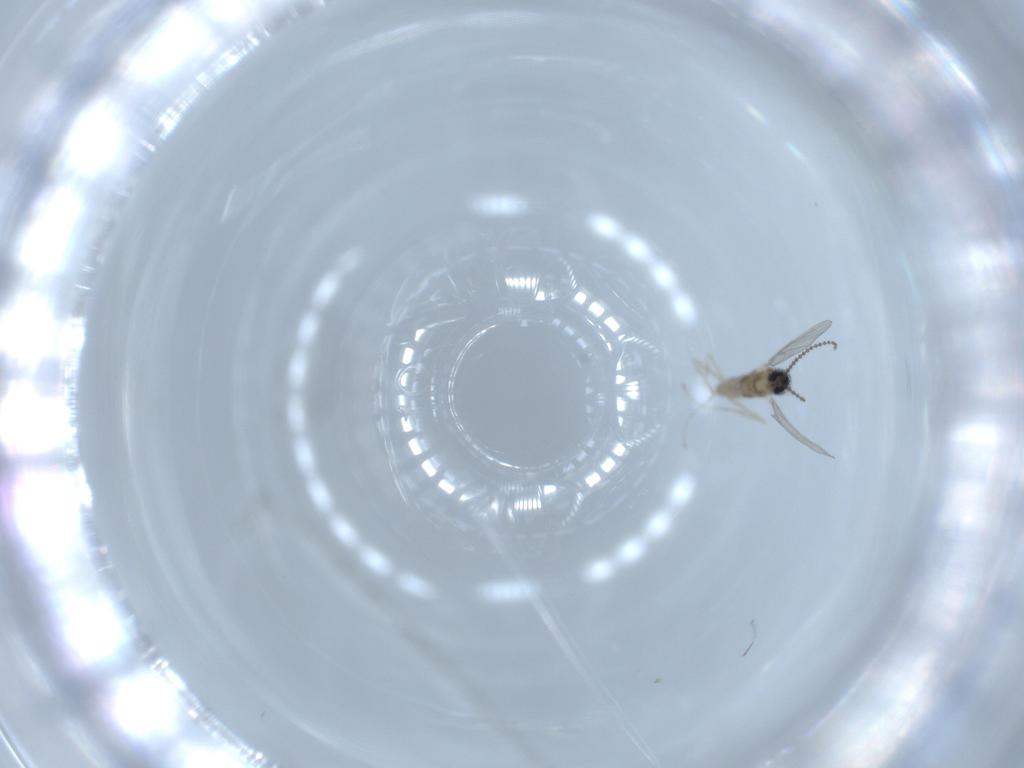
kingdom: Animalia
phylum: Arthropoda
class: Insecta
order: Diptera
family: Cecidomyiidae
